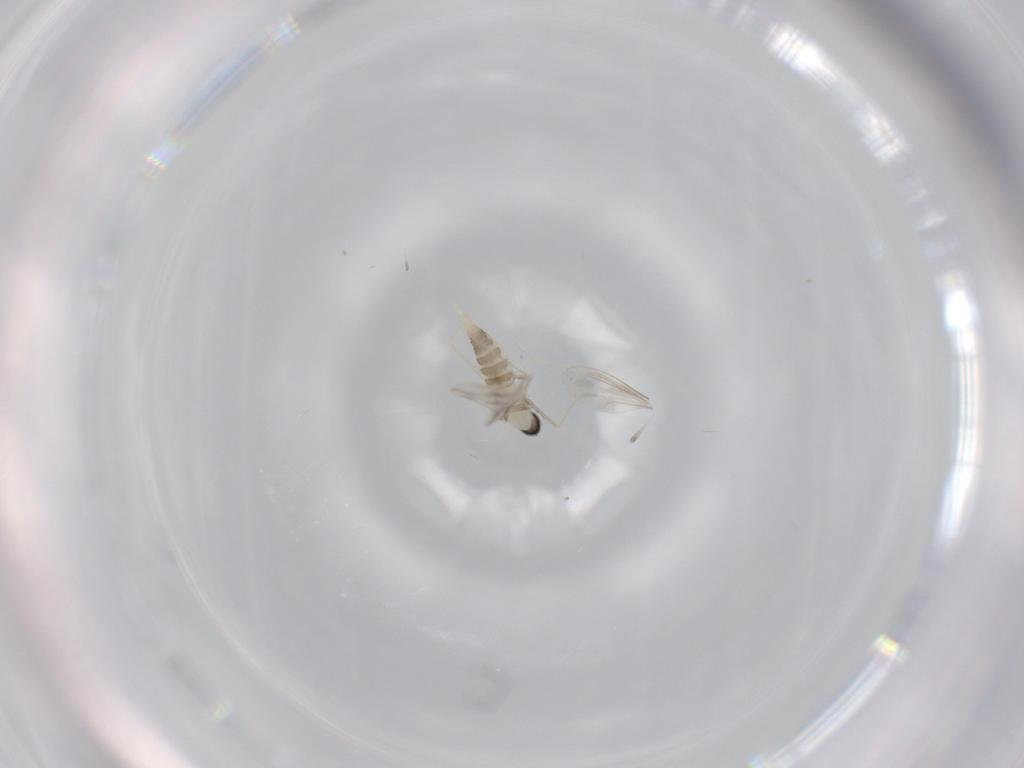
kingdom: Animalia
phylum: Arthropoda
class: Insecta
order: Diptera
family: Cecidomyiidae
